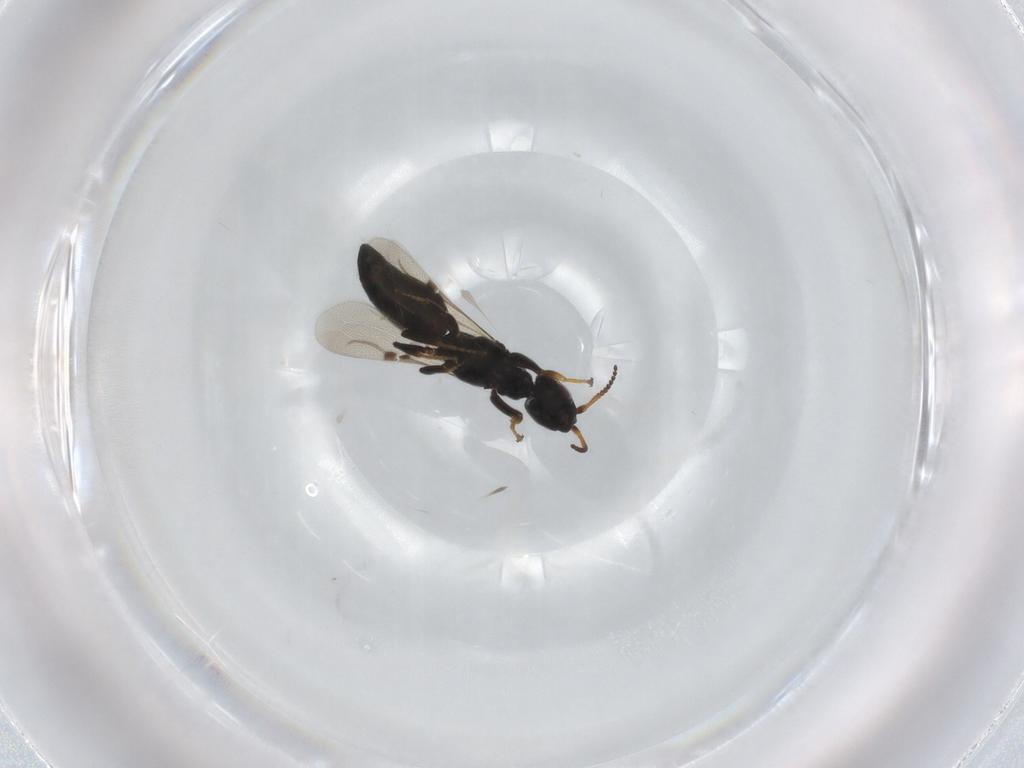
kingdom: Animalia
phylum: Arthropoda
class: Insecta
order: Hymenoptera
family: Bethylidae
